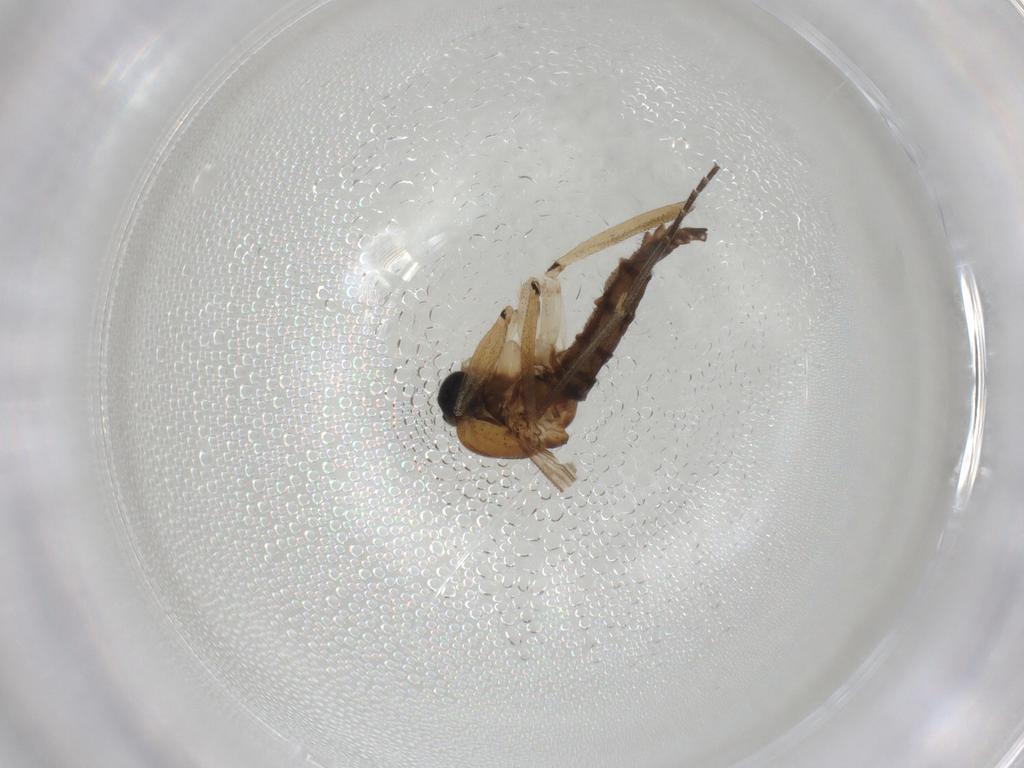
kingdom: Animalia
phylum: Arthropoda
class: Insecta
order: Diptera
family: Sciaridae
